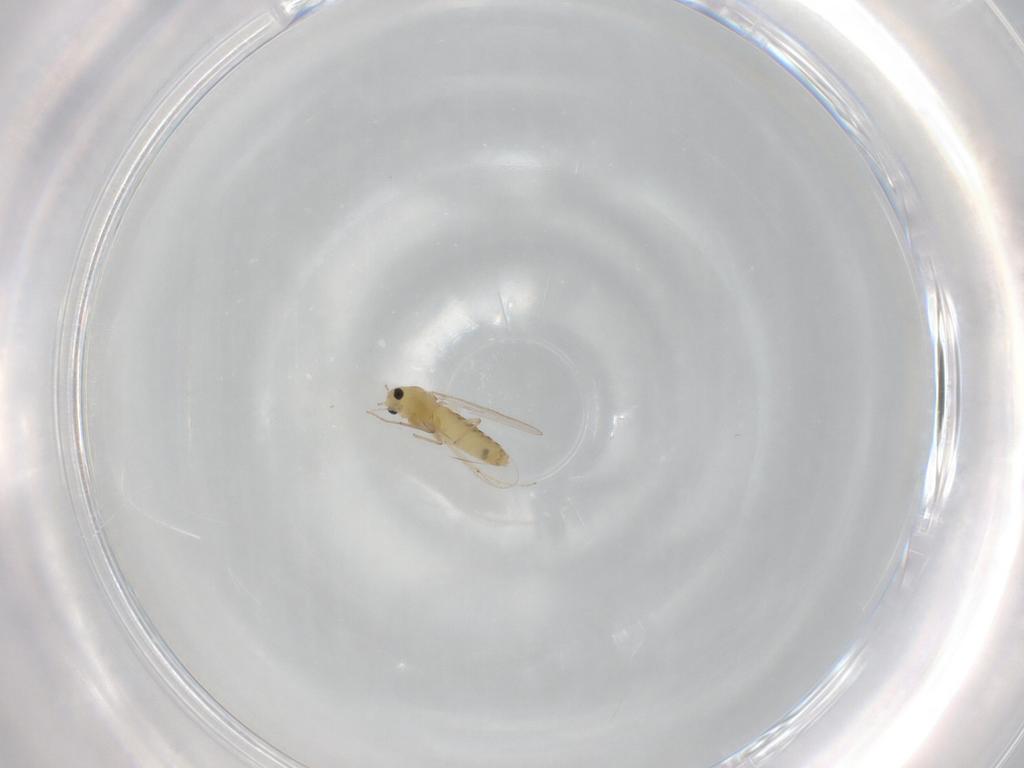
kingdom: Animalia
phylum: Arthropoda
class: Insecta
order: Diptera
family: Chironomidae
